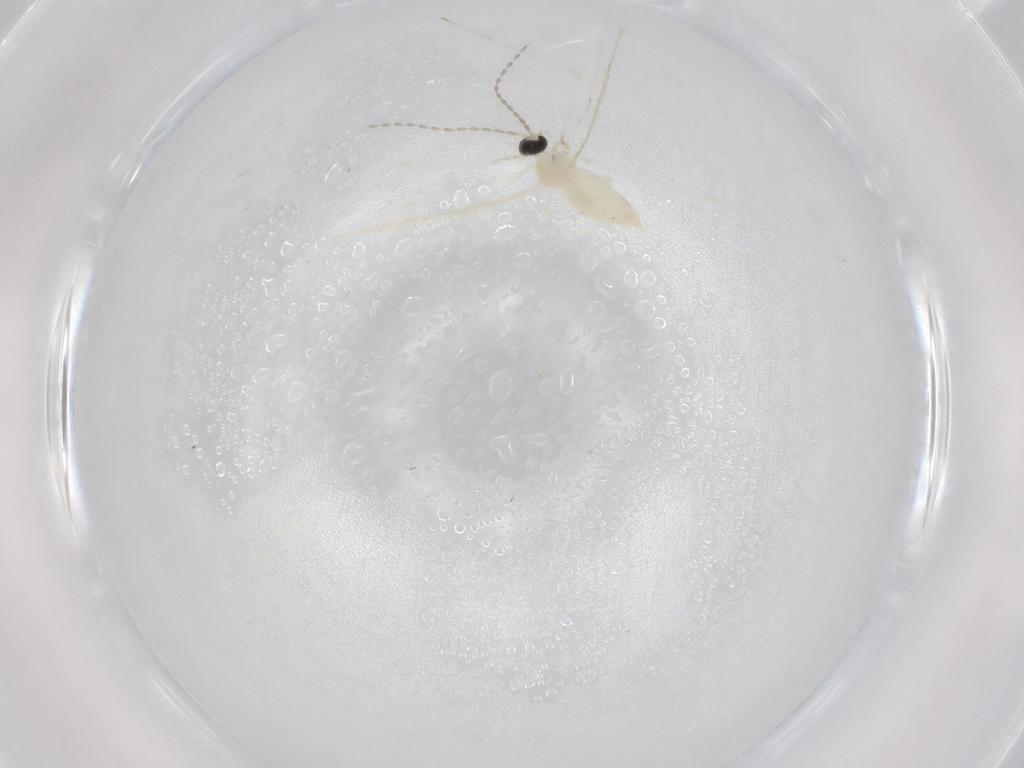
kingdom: Animalia
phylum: Arthropoda
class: Insecta
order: Diptera
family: Cecidomyiidae
